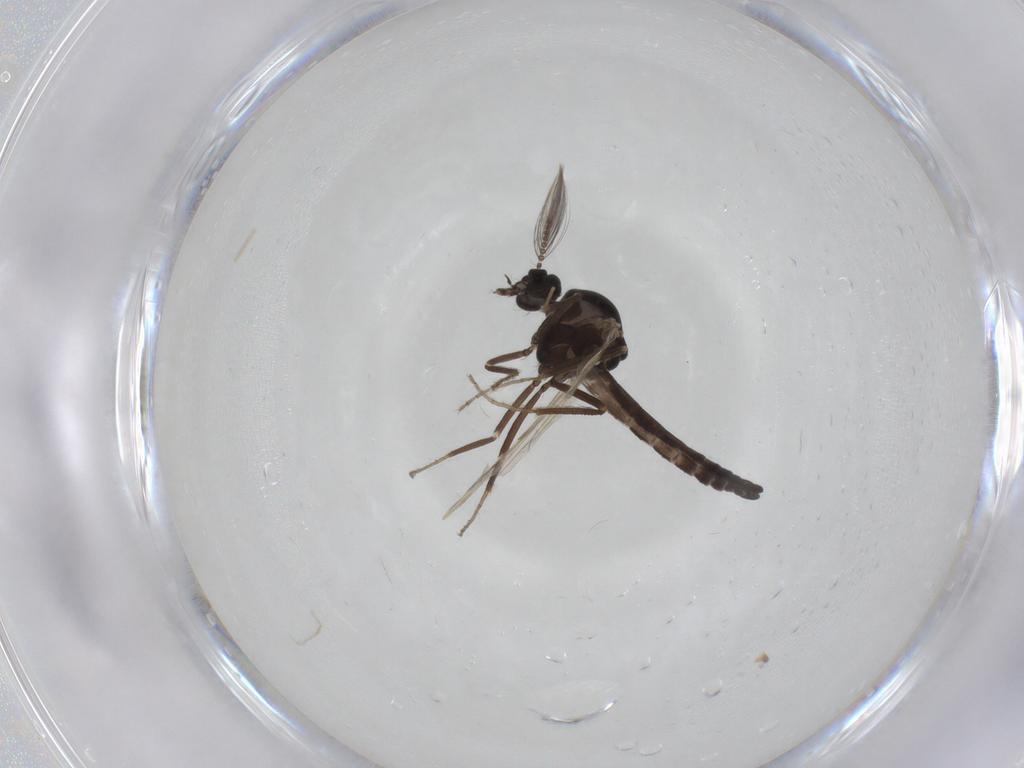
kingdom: Animalia
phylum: Arthropoda
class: Insecta
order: Diptera
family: Ceratopogonidae
